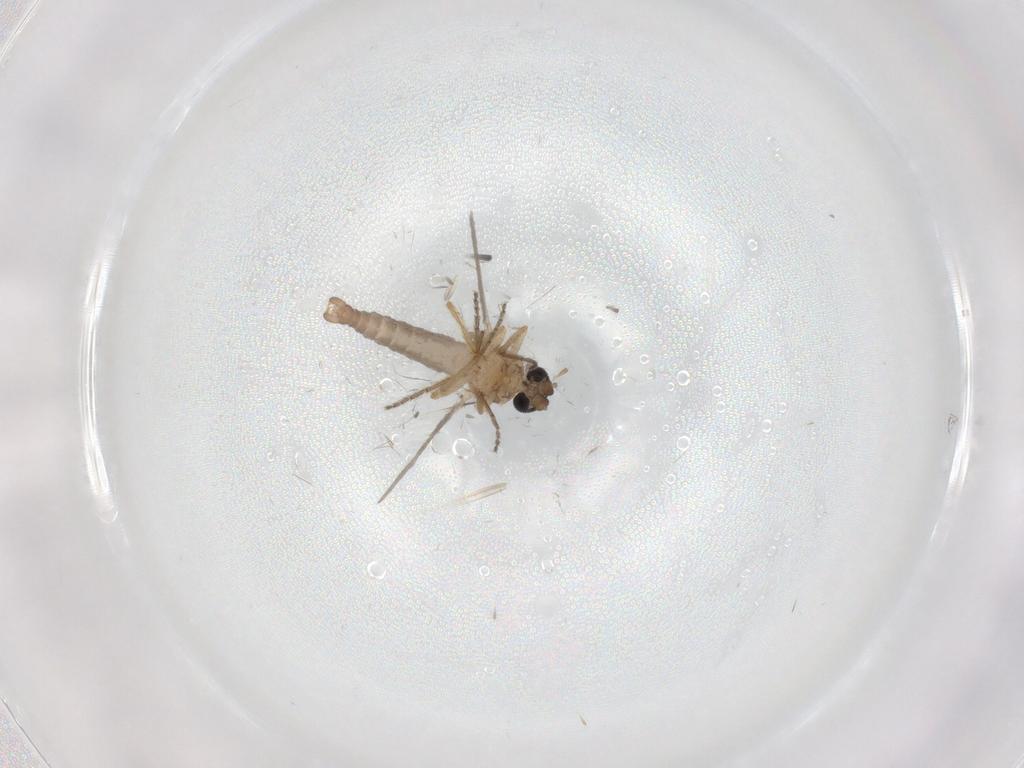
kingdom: Animalia
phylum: Arthropoda
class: Insecta
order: Diptera
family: Ceratopogonidae
